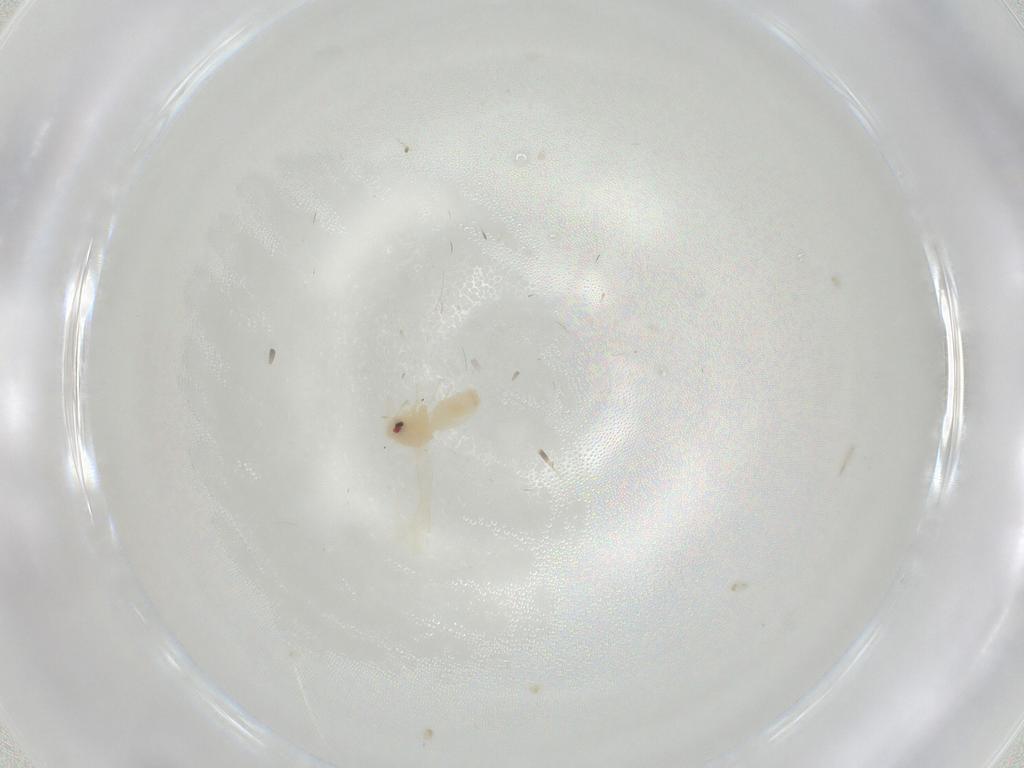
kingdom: Animalia
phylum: Arthropoda
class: Insecta
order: Hemiptera
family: Aleyrodidae
